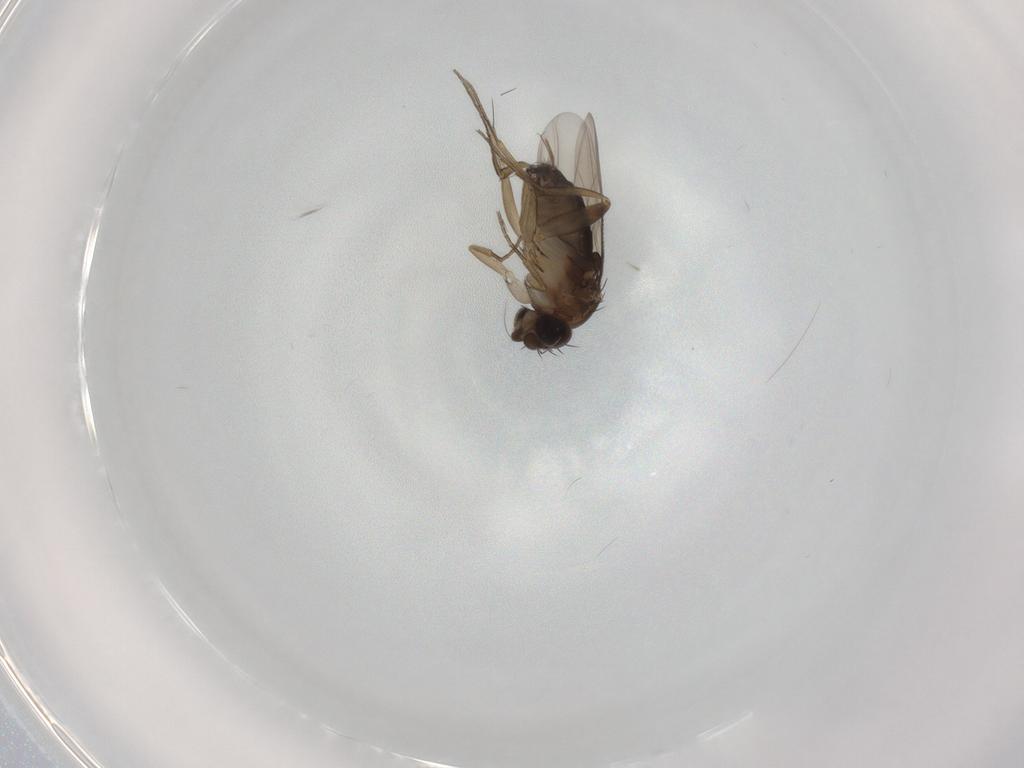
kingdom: Animalia
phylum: Arthropoda
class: Insecta
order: Diptera
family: Phoridae
